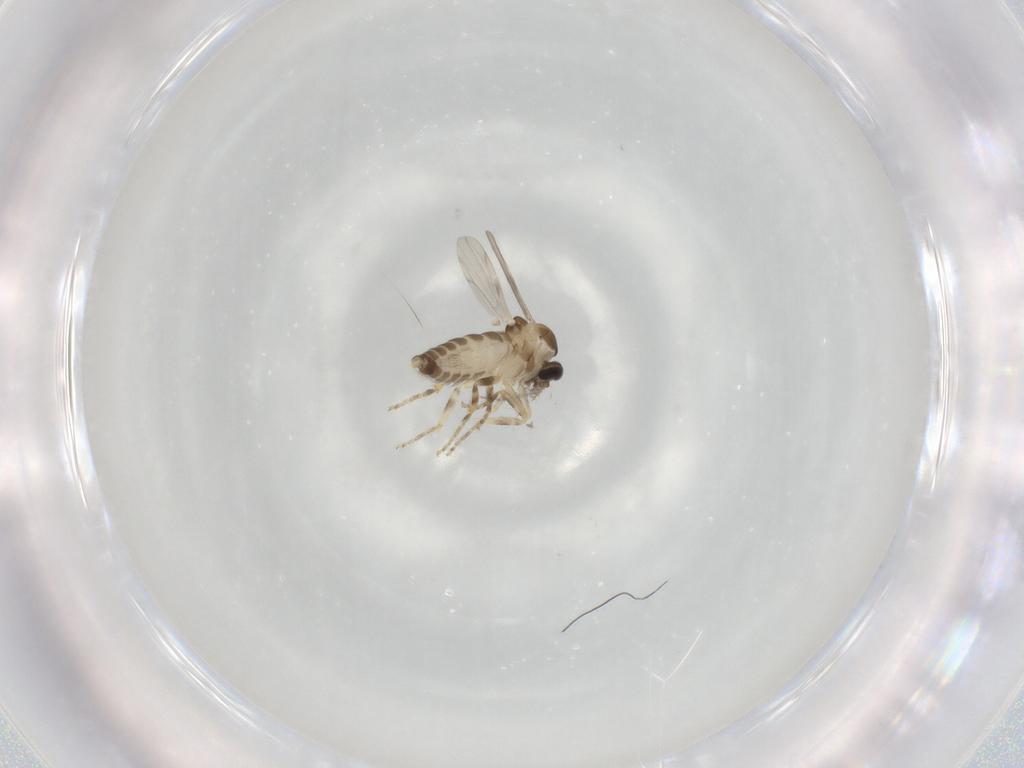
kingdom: Animalia
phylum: Arthropoda
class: Insecta
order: Diptera
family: Ceratopogonidae
